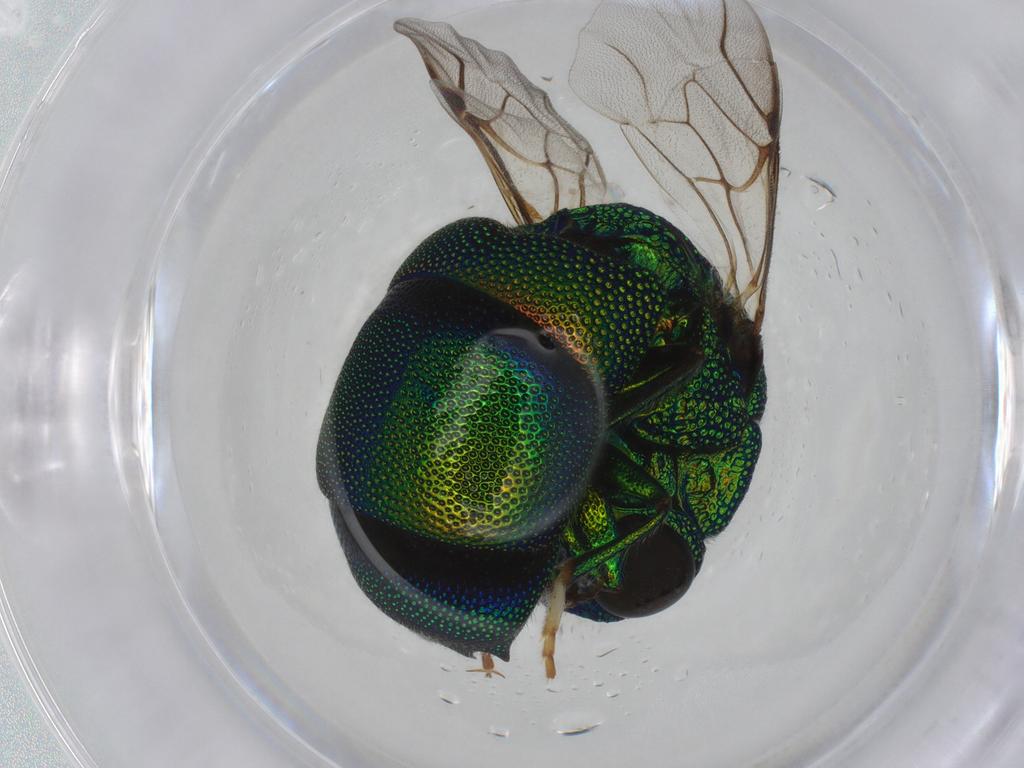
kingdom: Animalia
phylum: Arthropoda
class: Insecta
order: Hymenoptera
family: Chrysididae
